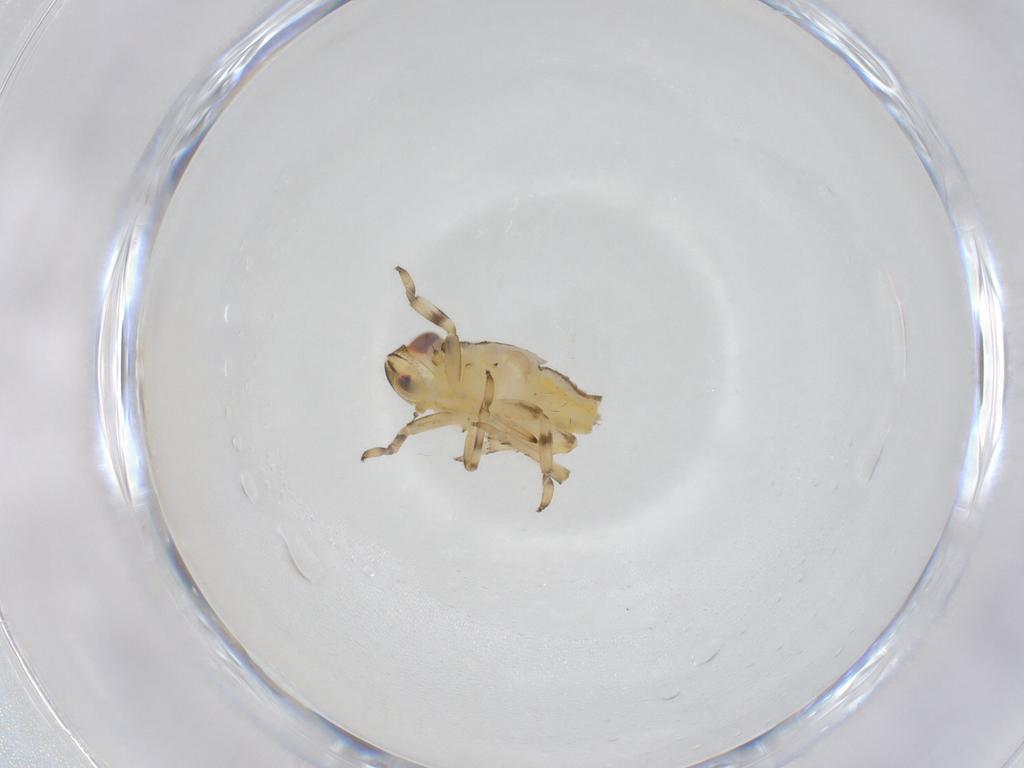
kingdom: Animalia
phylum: Arthropoda
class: Insecta
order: Hemiptera
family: Issidae
